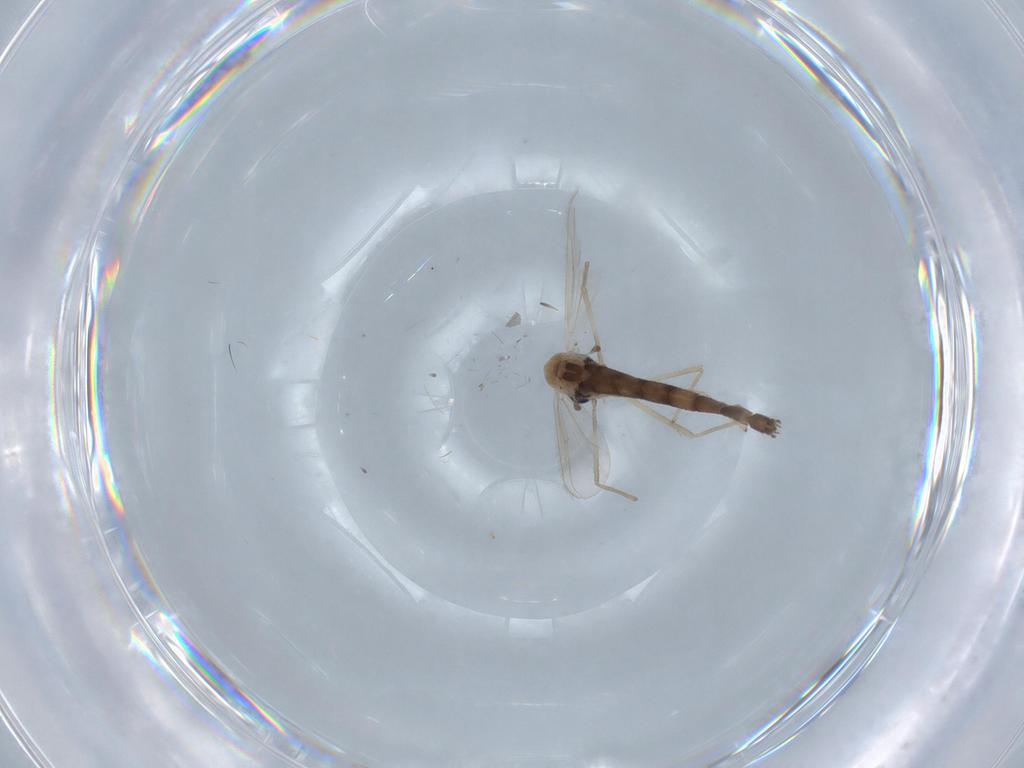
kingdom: Animalia
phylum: Arthropoda
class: Insecta
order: Diptera
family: Chironomidae
